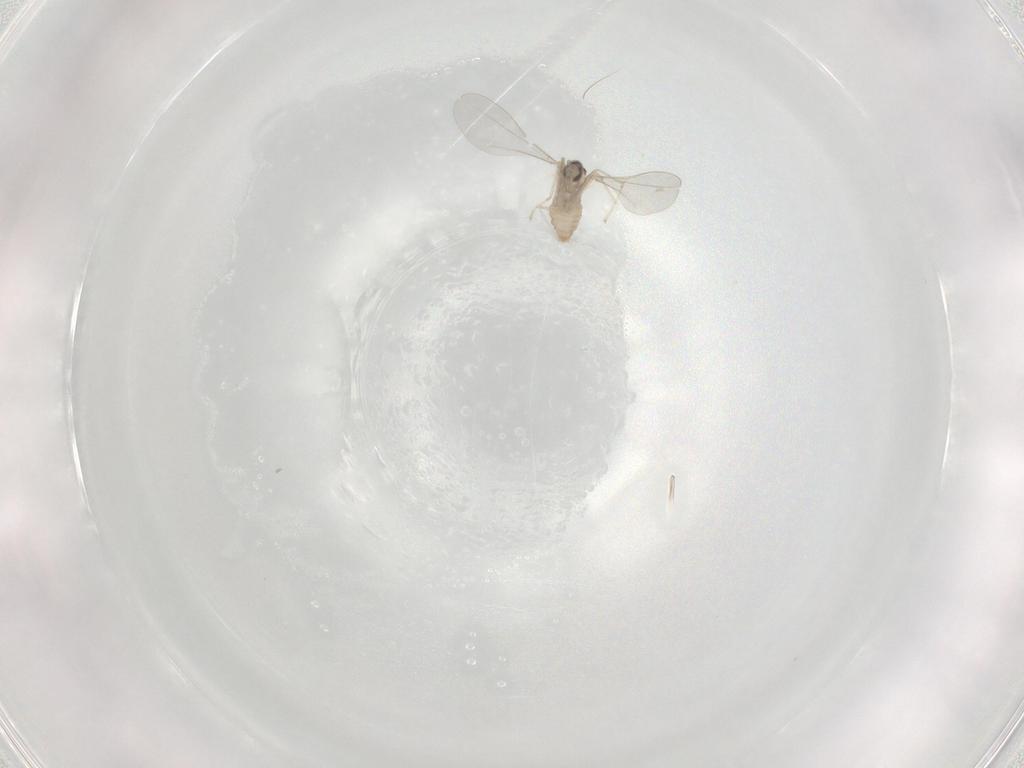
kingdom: Animalia
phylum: Arthropoda
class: Insecta
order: Diptera
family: Cecidomyiidae
